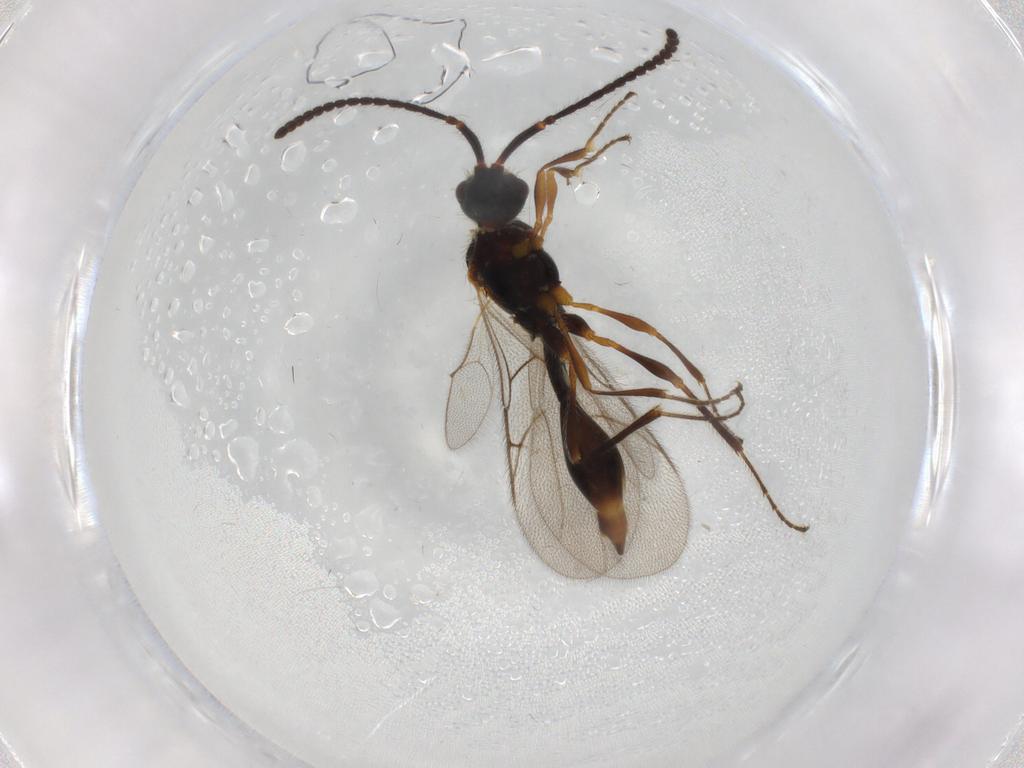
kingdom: Animalia
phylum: Arthropoda
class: Insecta
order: Hymenoptera
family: Diapriidae
